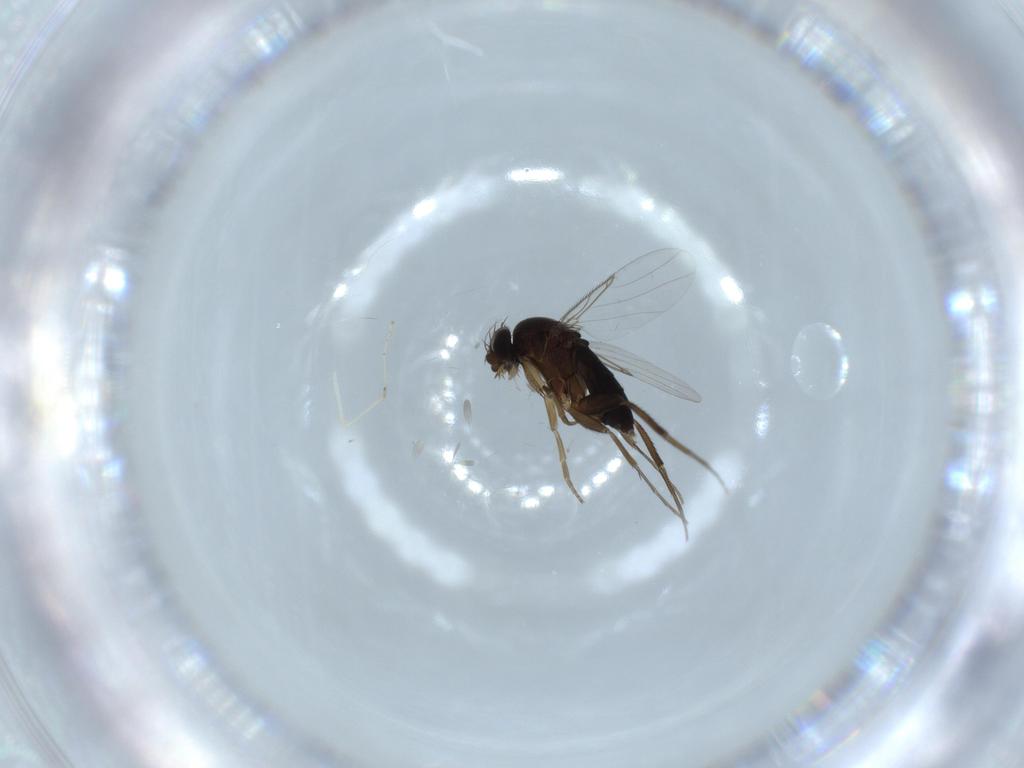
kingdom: Animalia
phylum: Arthropoda
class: Insecta
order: Diptera
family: Phoridae
